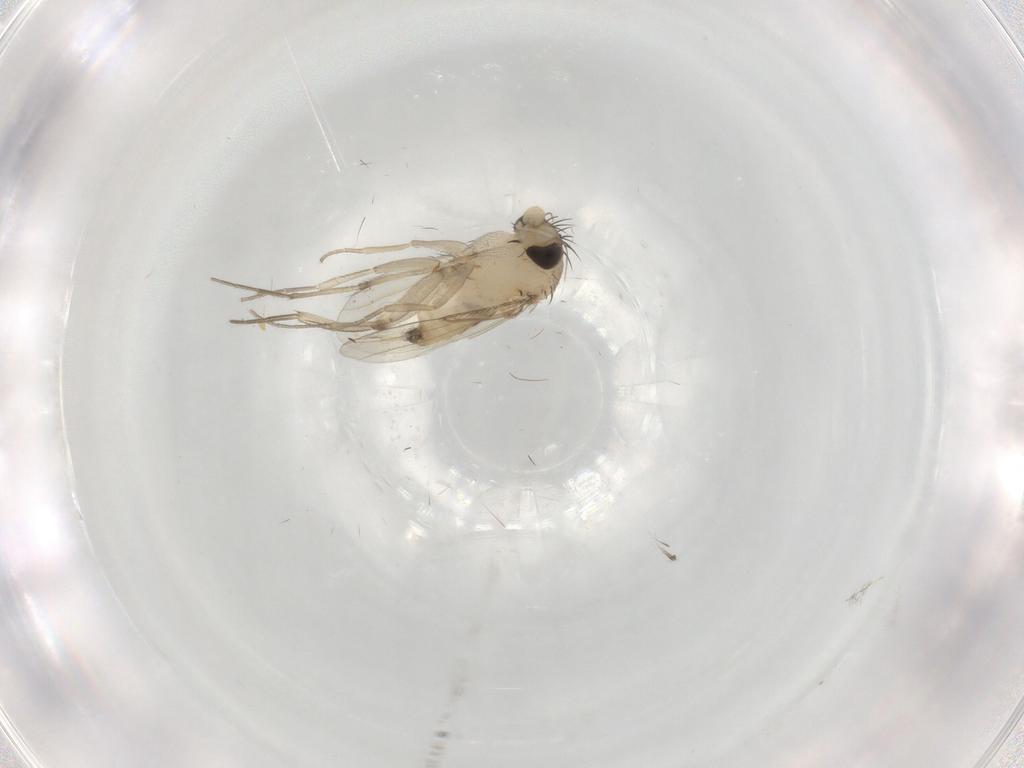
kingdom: Animalia
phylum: Arthropoda
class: Insecta
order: Diptera
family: Phoridae
